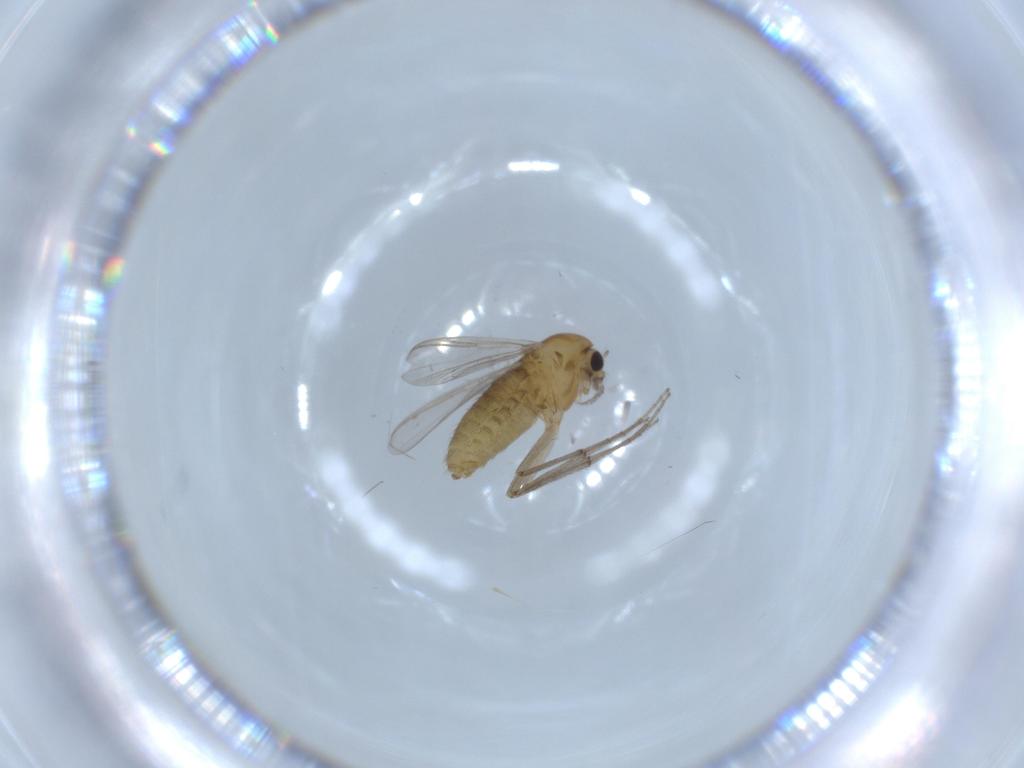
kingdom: Animalia
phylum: Arthropoda
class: Insecta
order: Diptera
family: Chironomidae
